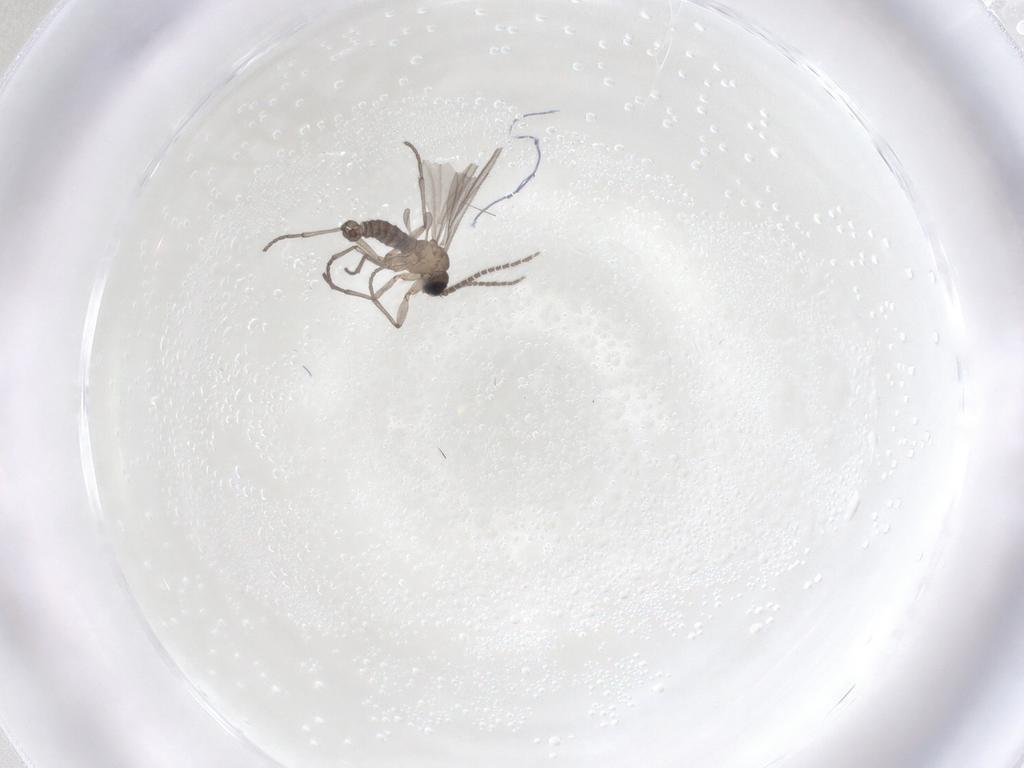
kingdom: Animalia
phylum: Arthropoda
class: Insecta
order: Diptera
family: Sciaridae
